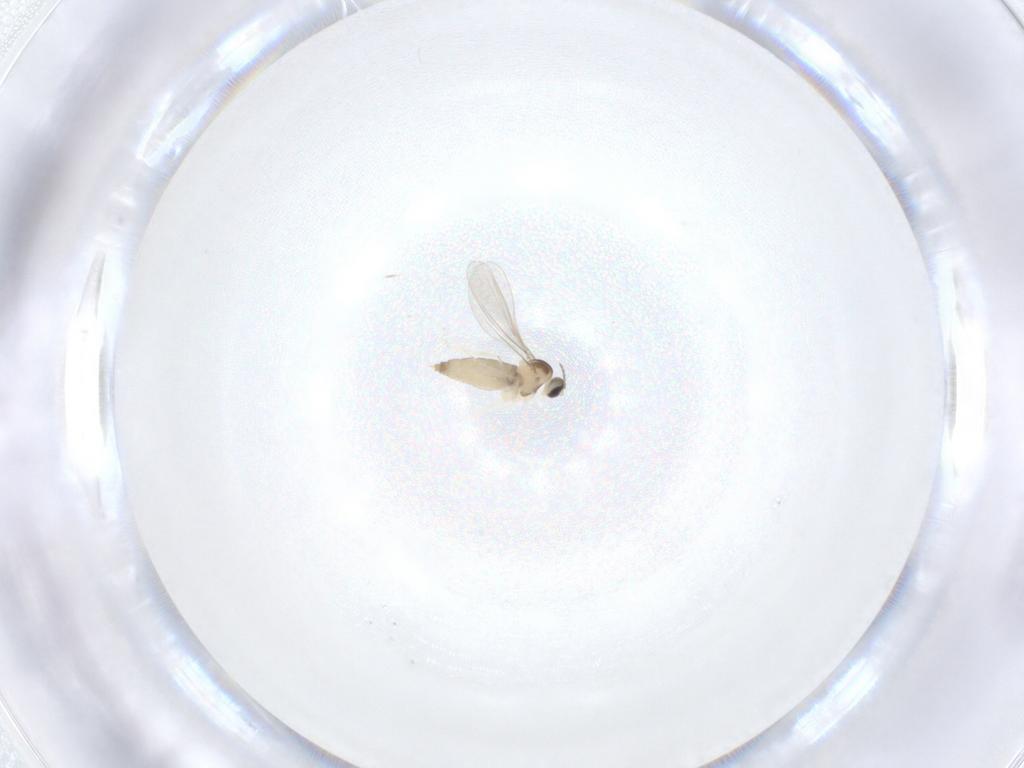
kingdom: Animalia
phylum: Arthropoda
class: Insecta
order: Diptera
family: Cecidomyiidae
